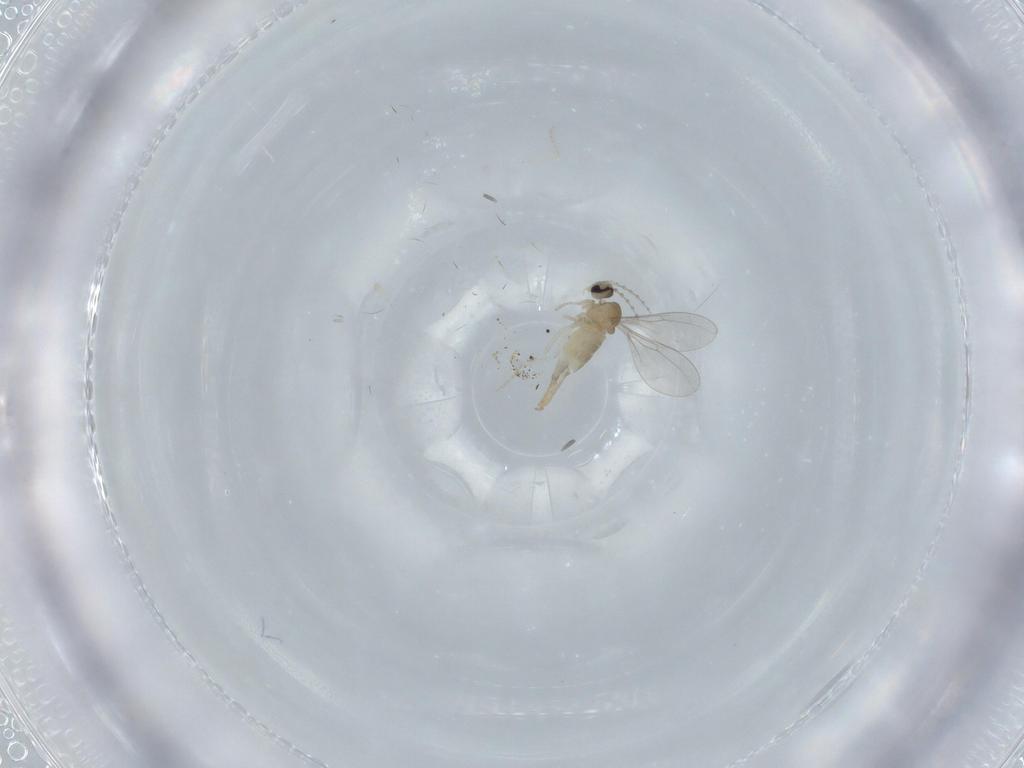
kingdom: Animalia
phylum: Arthropoda
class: Insecta
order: Diptera
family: Cecidomyiidae
